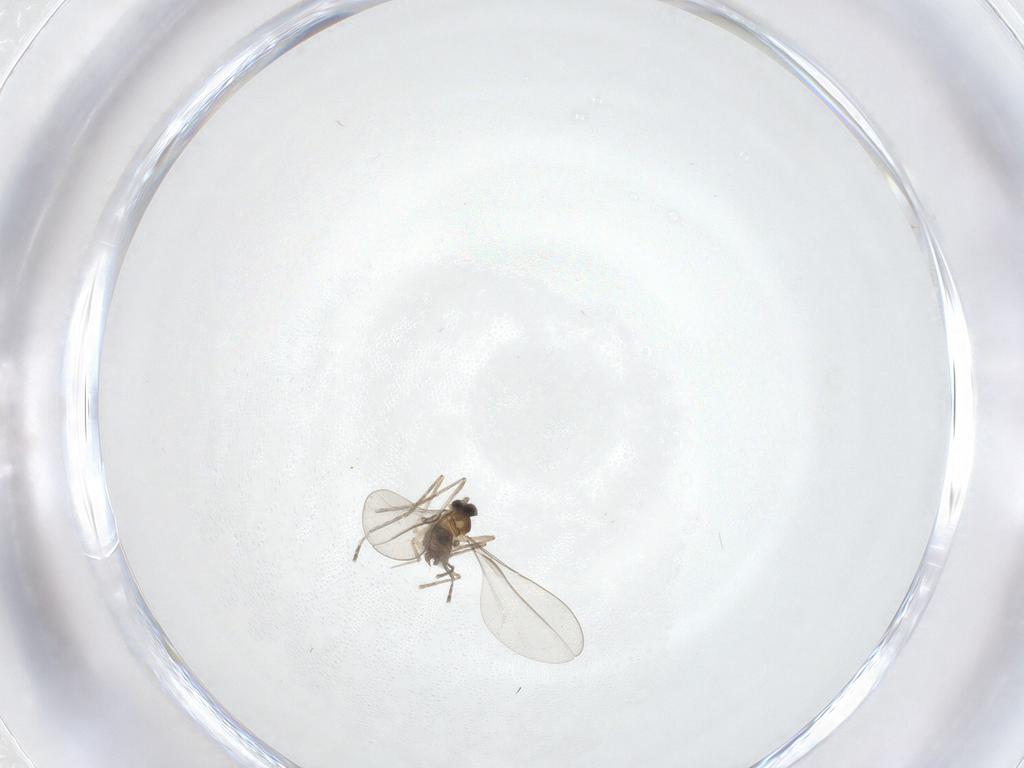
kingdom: Animalia
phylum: Arthropoda
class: Insecta
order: Diptera
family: Cecidomyiidae
